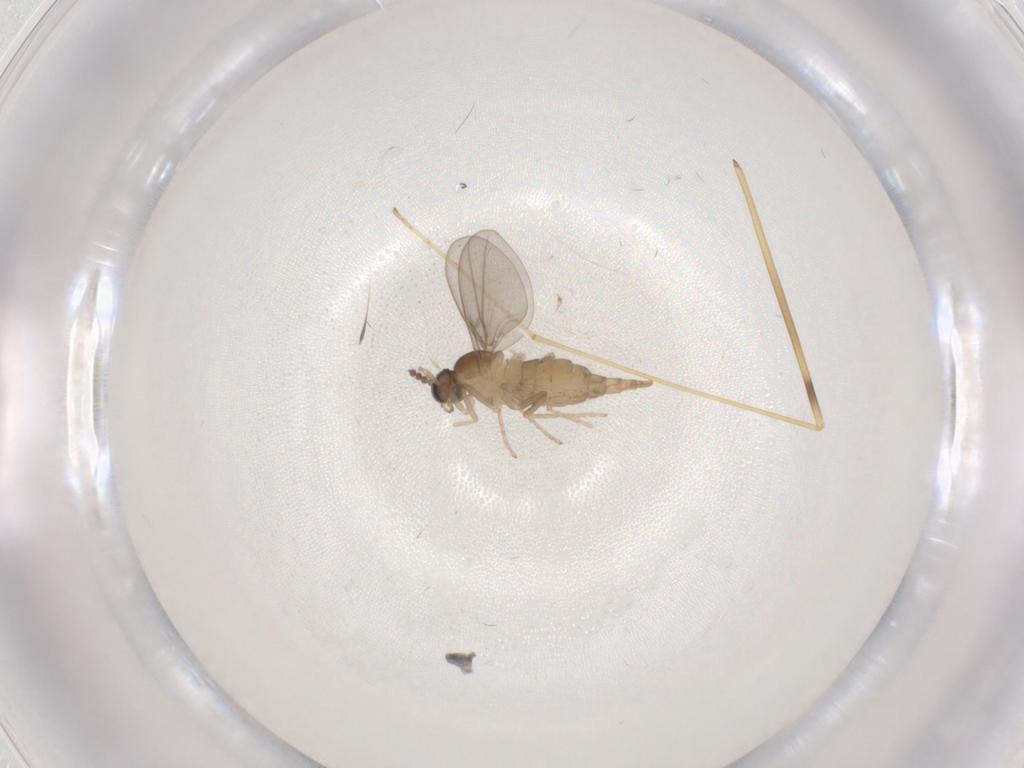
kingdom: Animalia
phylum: Arthropoda
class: Insecta
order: Diptera
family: Cecidomyiidae
